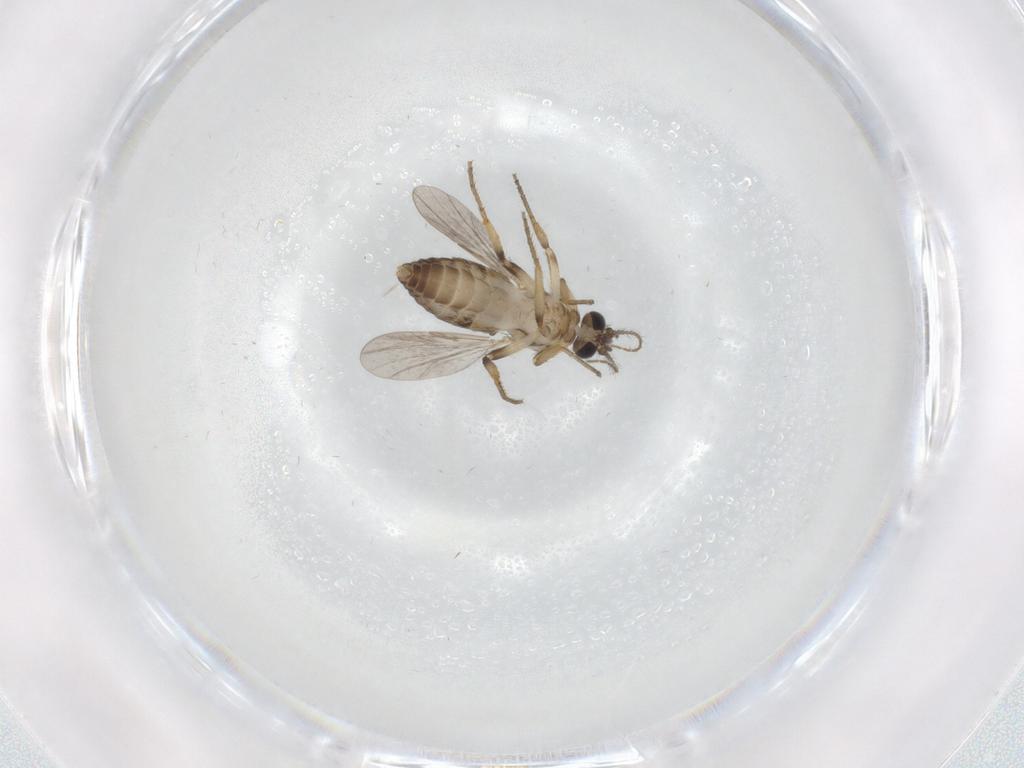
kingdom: Animalia
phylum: Arthropoda
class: Insecta
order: Diptera
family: Ceratopogonidae
